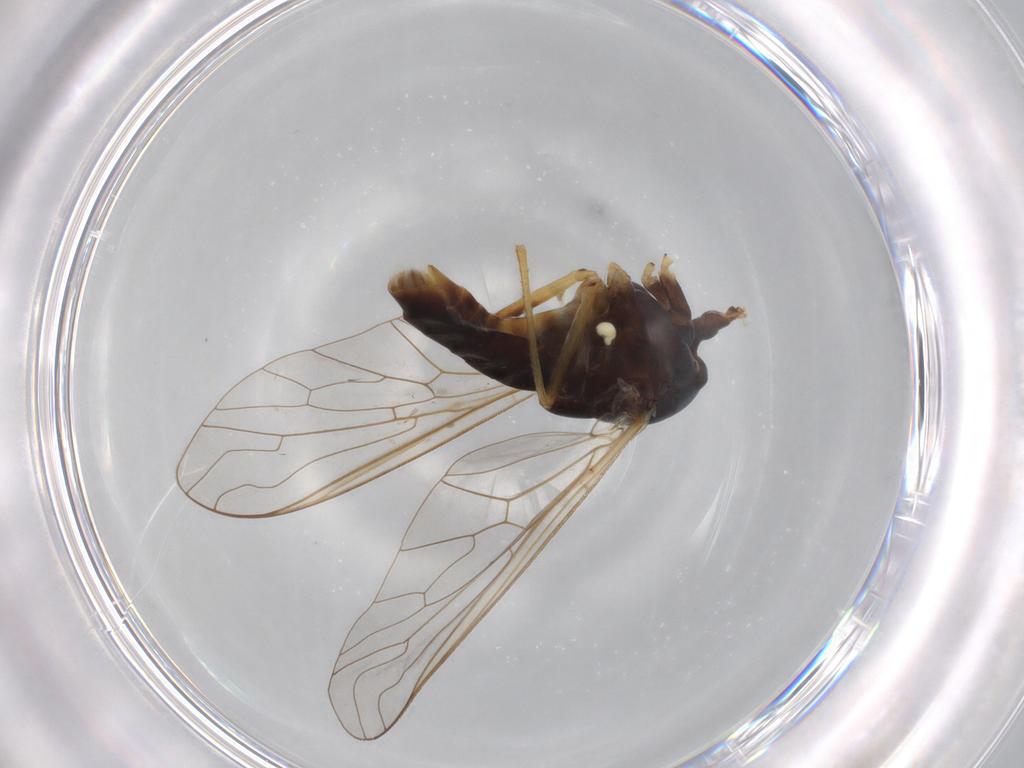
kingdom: Animalia
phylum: Arthropoda
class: Insecta
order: Diptera
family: Bombyliidae
